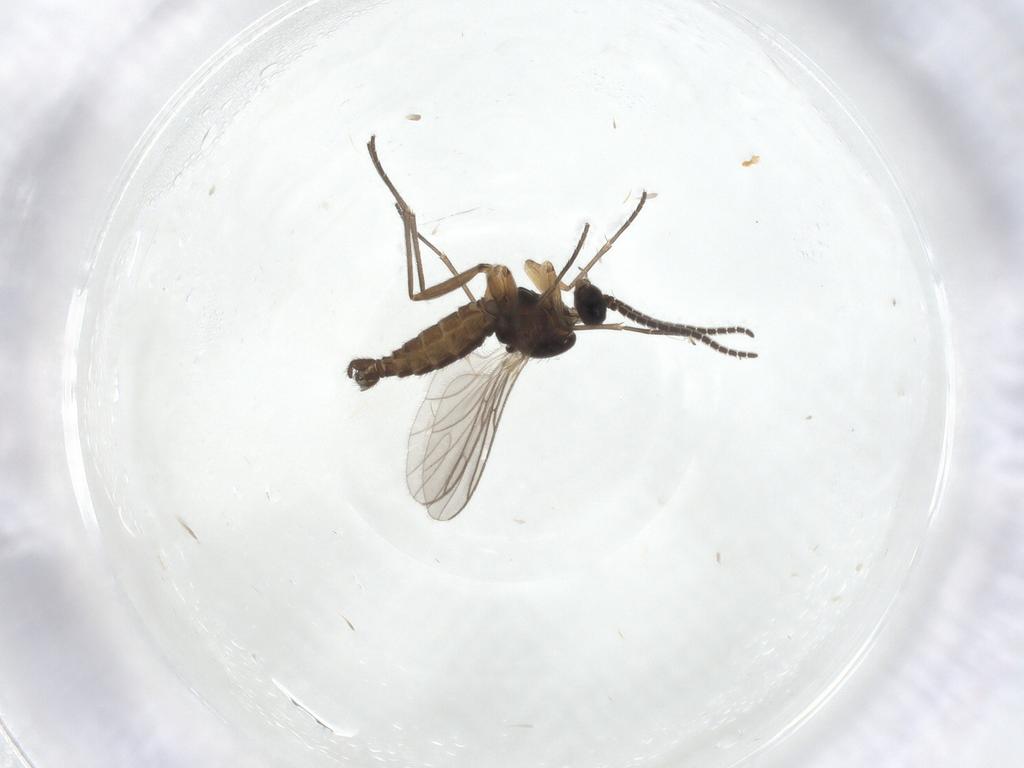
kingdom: Animalia
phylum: Arthropoda
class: Insecta
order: Diptera
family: Sciaridae
